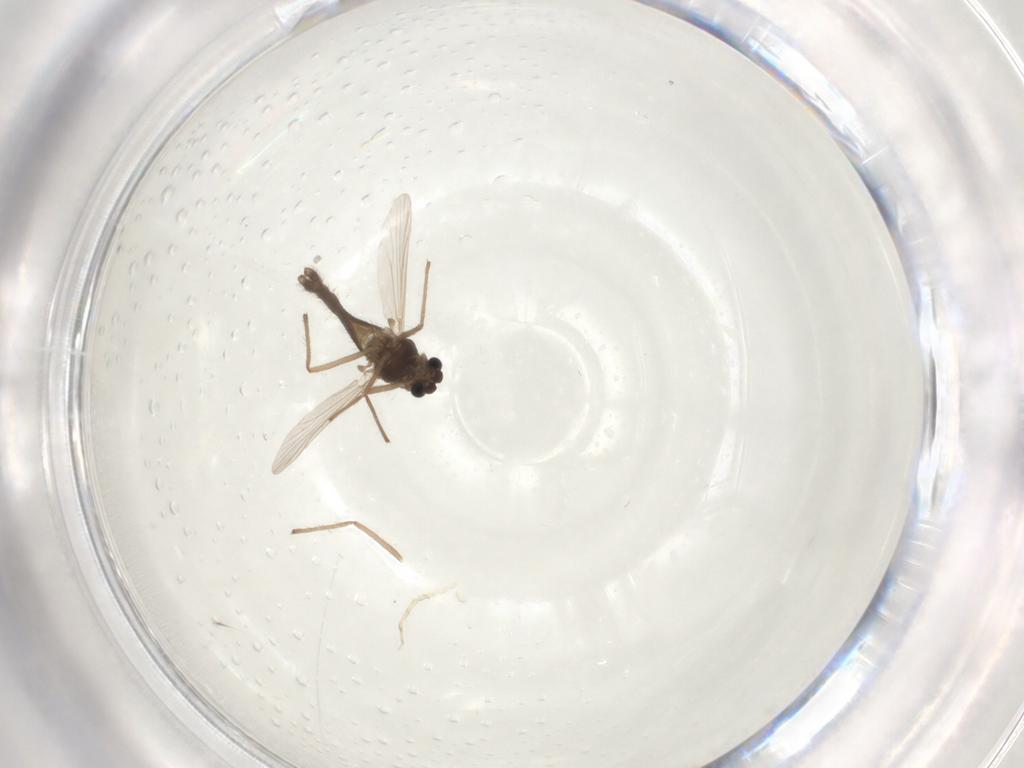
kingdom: Animalia
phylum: Arthropoda
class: Insecta
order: Diptera
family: Chironomidae
